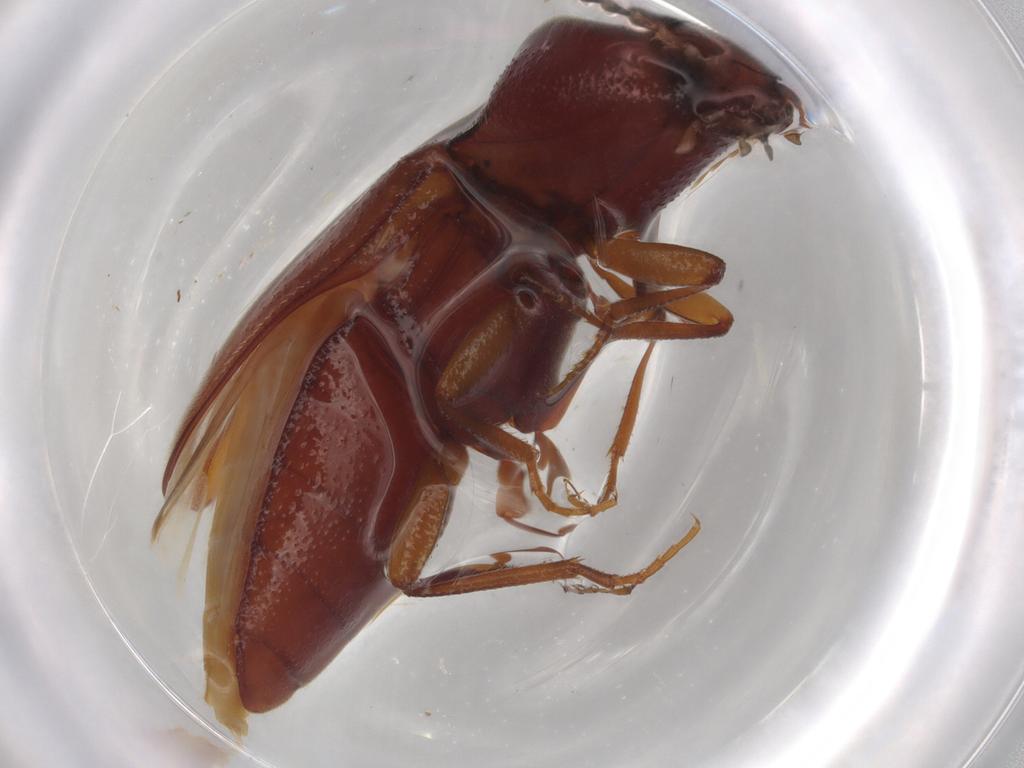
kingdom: Animalia
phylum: Arthropoda
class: Insecta
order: Coleoptera
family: Elateridae
